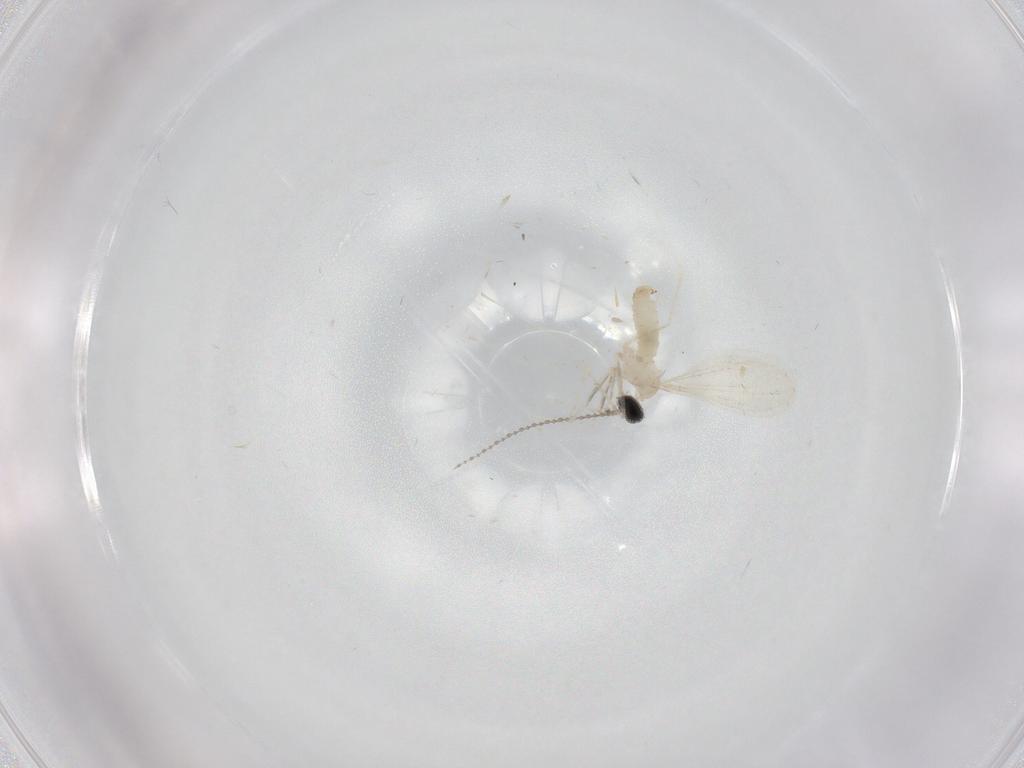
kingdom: Animalia
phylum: Arthropoda
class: Insecta
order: Diptera
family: Cecidomyiidae
